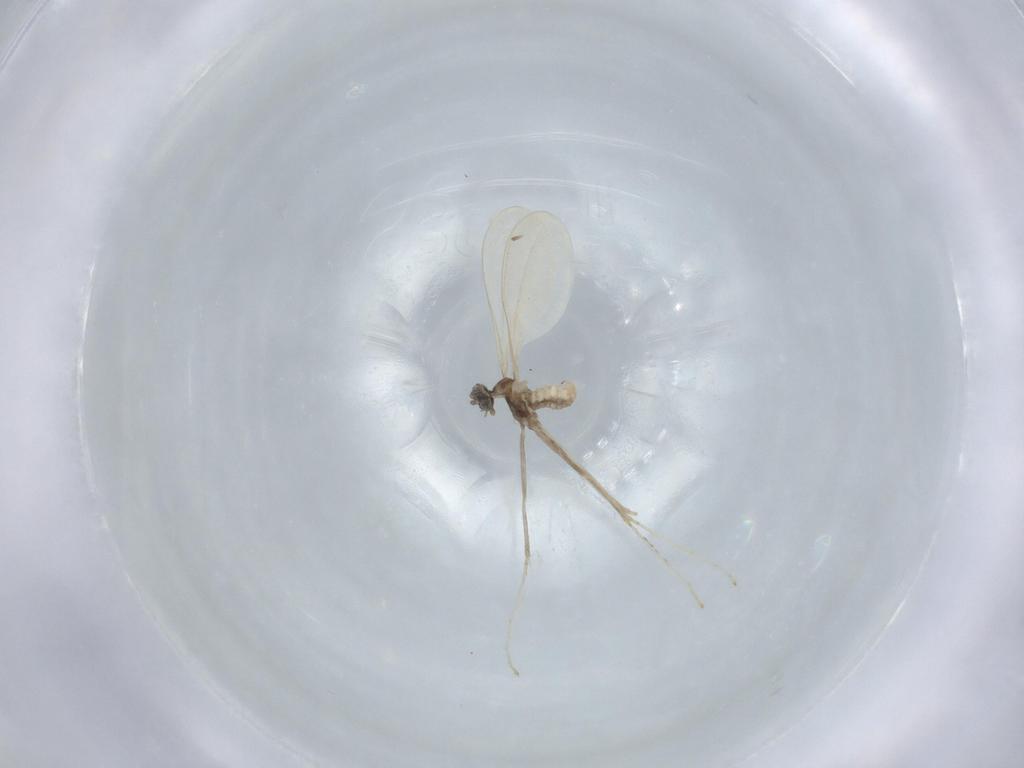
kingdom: Animalia
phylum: Arthropoda
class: Insecta
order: Diptera
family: Cecidomyiidae
